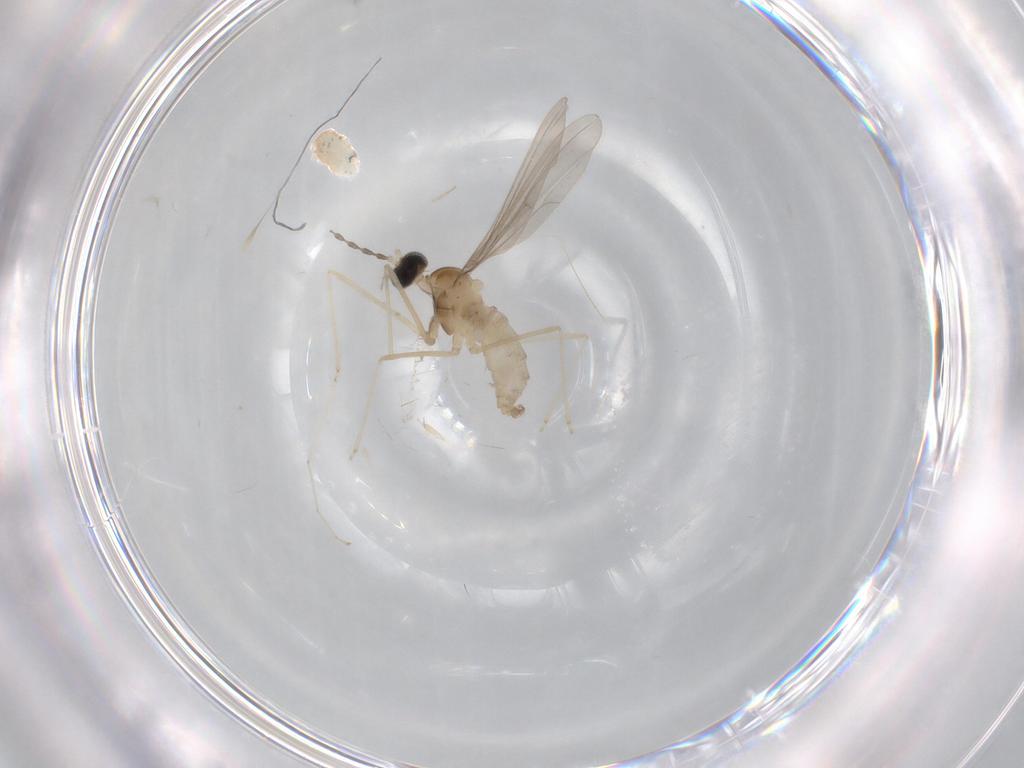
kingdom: Animalia
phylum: Arthropoda
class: Insecta
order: Diptera
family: Cecidomyiidae
